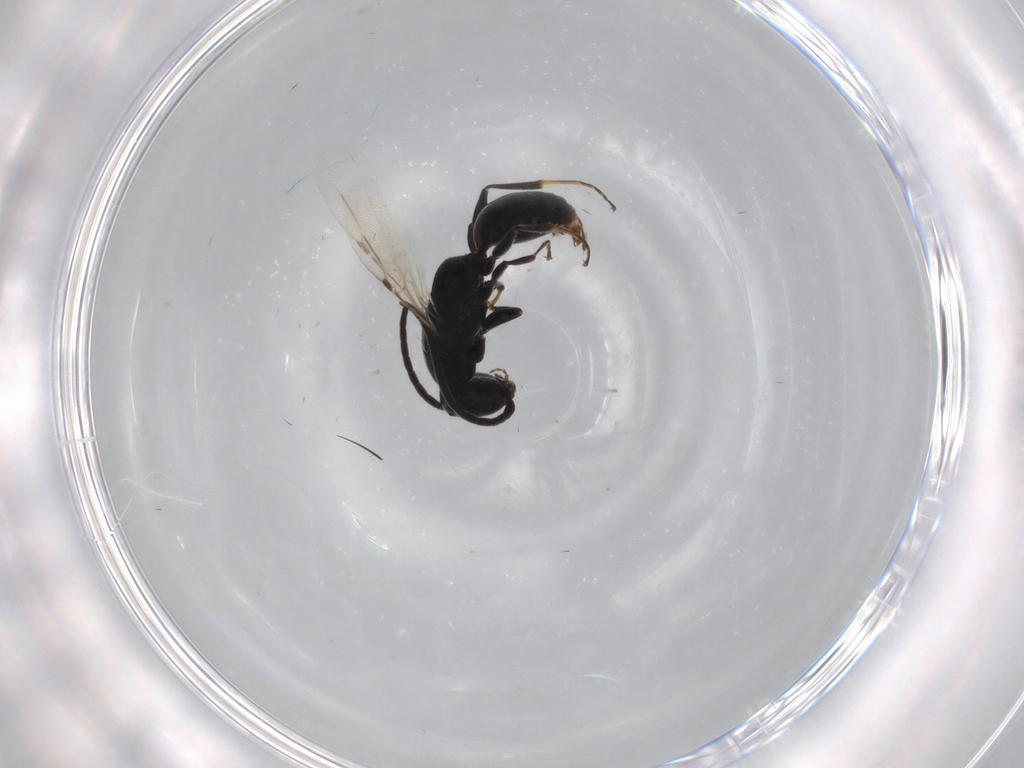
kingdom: Animalia
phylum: Arthropoda
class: Insecta
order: Hymenoptera
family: Bethylidae
